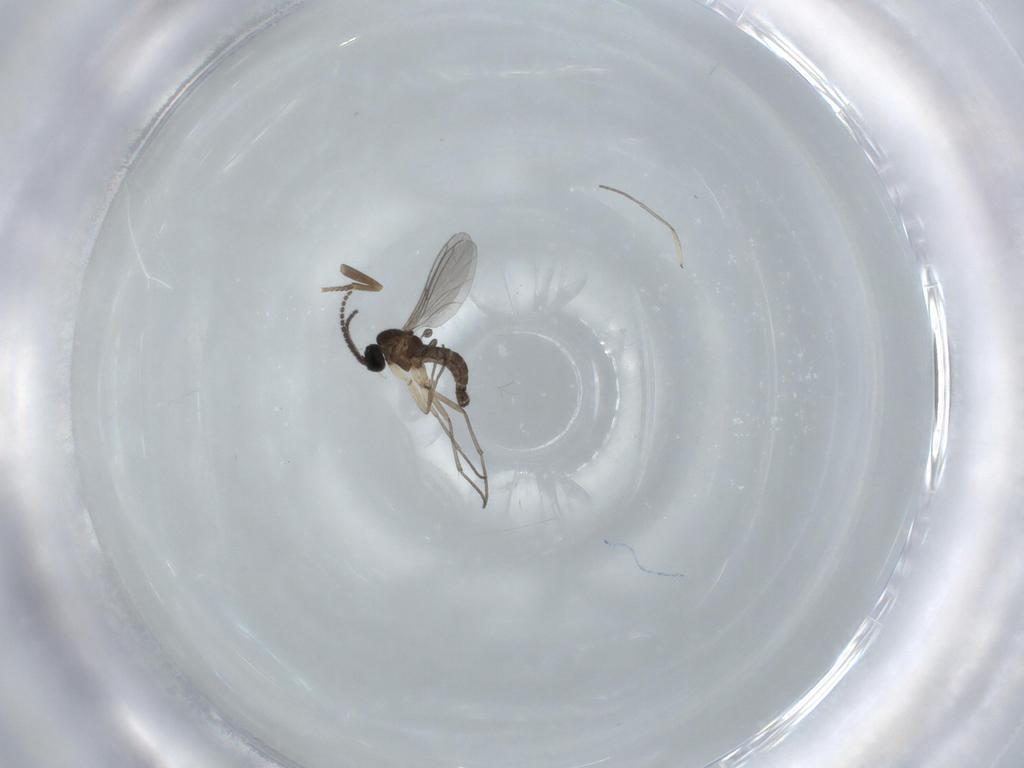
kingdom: Animalia
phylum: Arthropoda
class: Insecta
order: Diptera
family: Sciaridae
